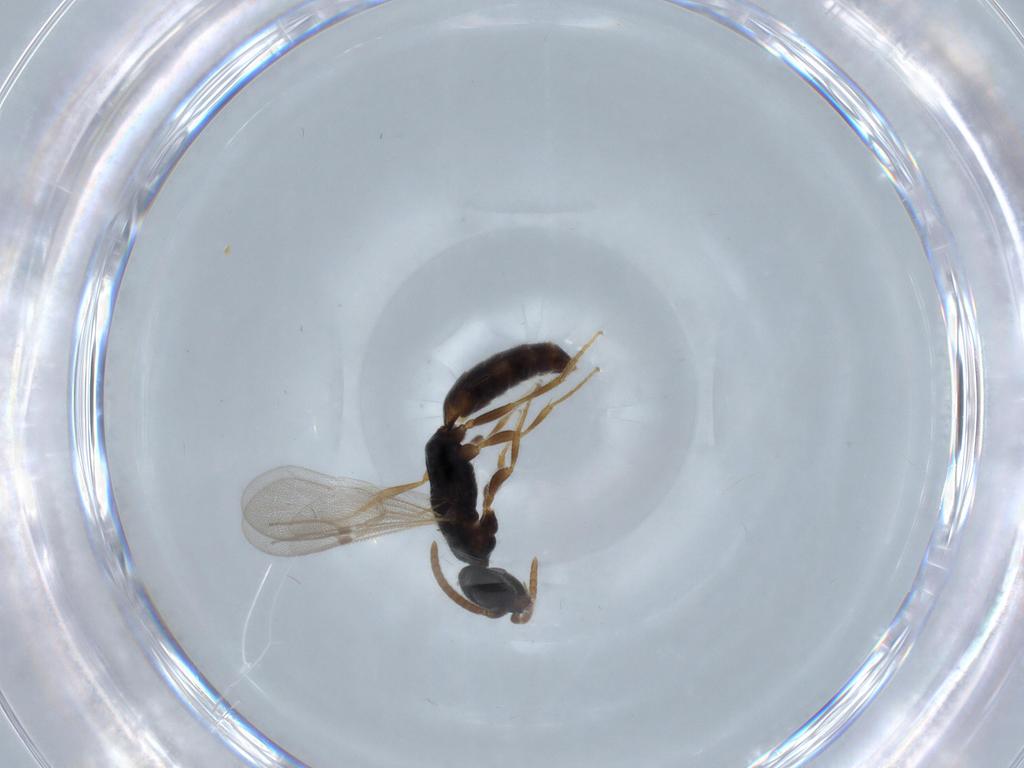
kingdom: Animalia
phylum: Arthropoda
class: Insecta
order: Hymenoptera
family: Bethylidae
